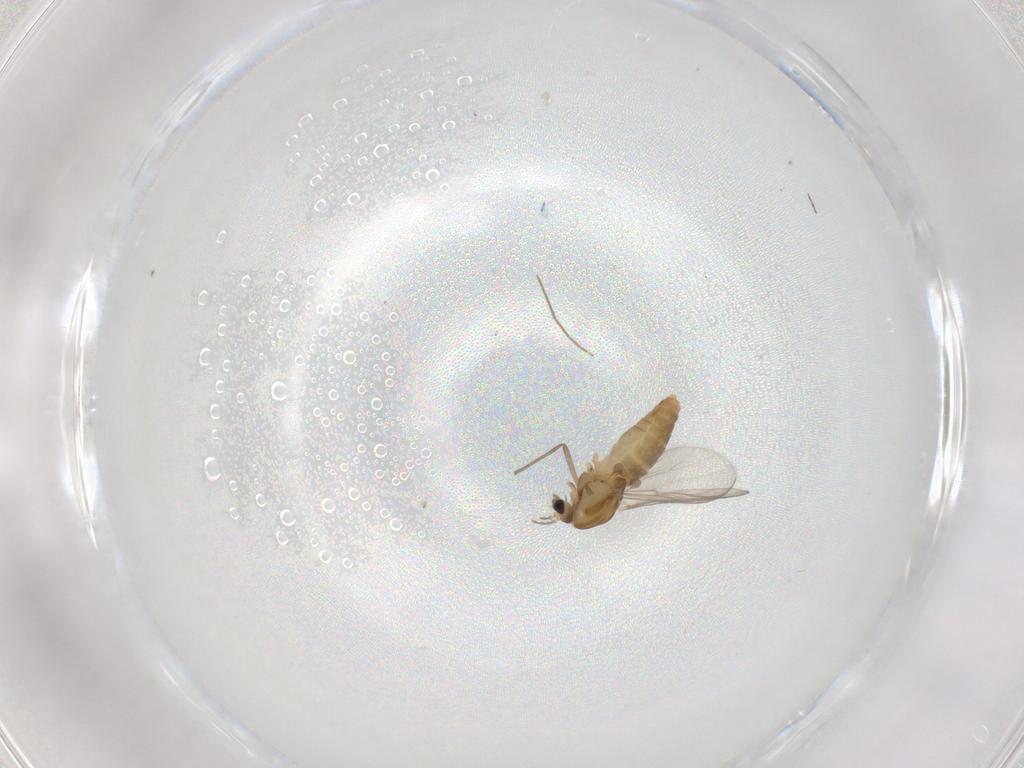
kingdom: Animalia
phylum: Arthropoda
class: Insecta
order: Diptera
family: Chironomidae
